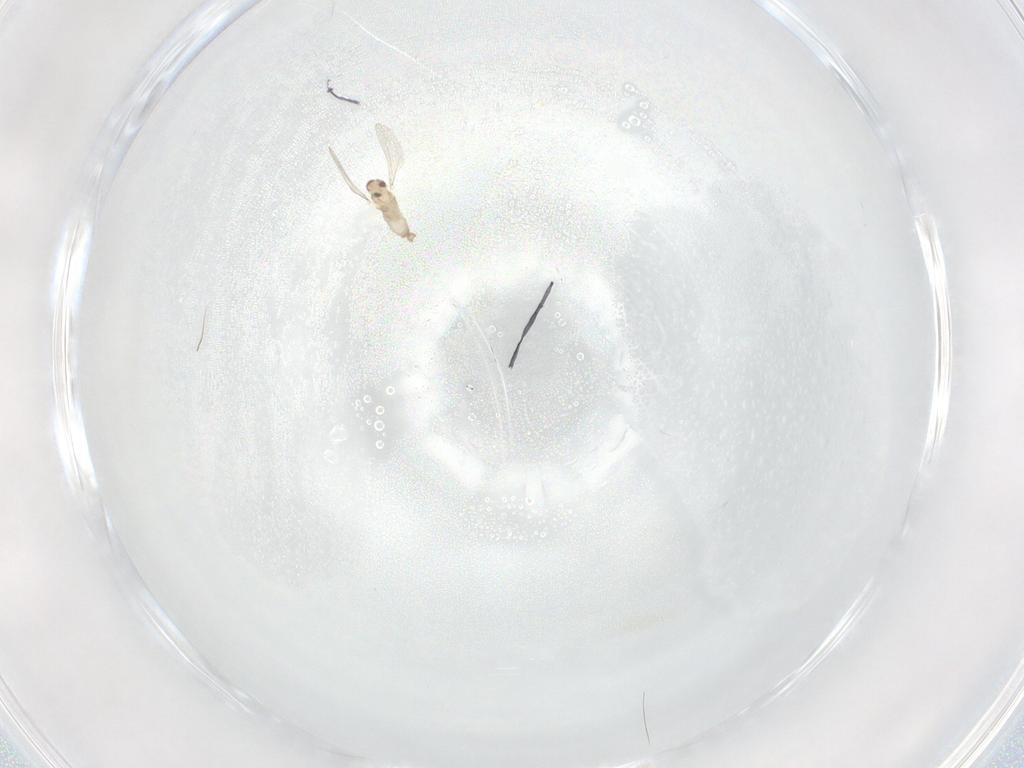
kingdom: Animalia
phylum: Arthropoda
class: Insecta
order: Diptera
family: Cecidomyiidae
